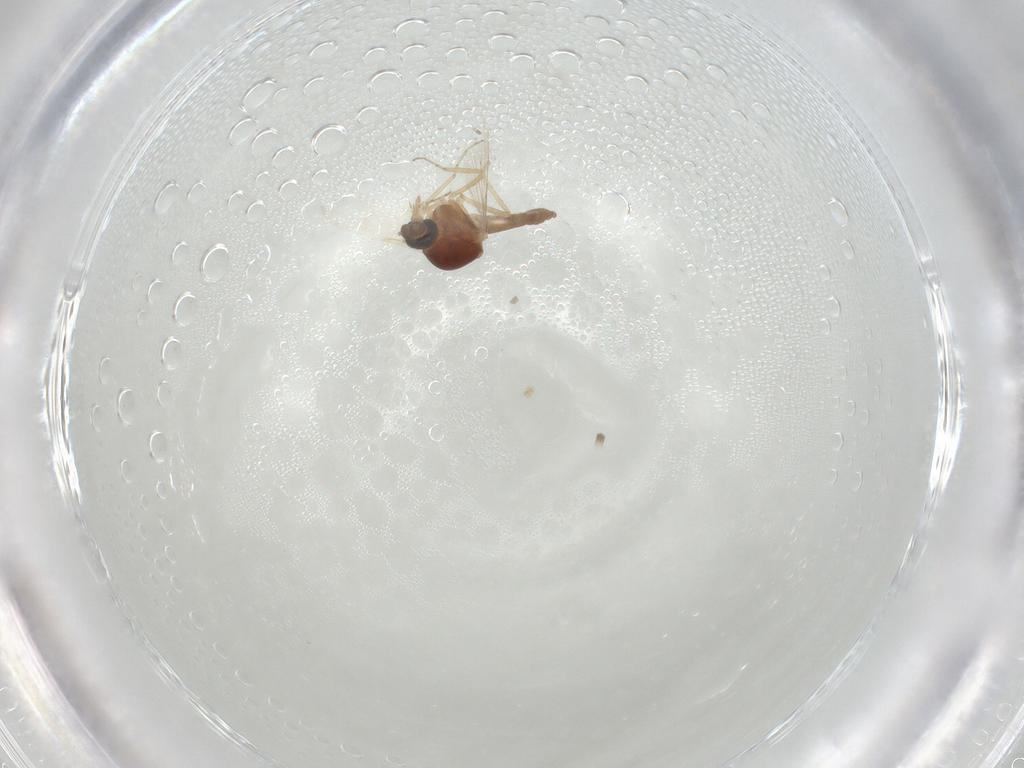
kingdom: Animalia
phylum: Arthropoda
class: Insecta
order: Diptera
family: Ceratopogonidae
